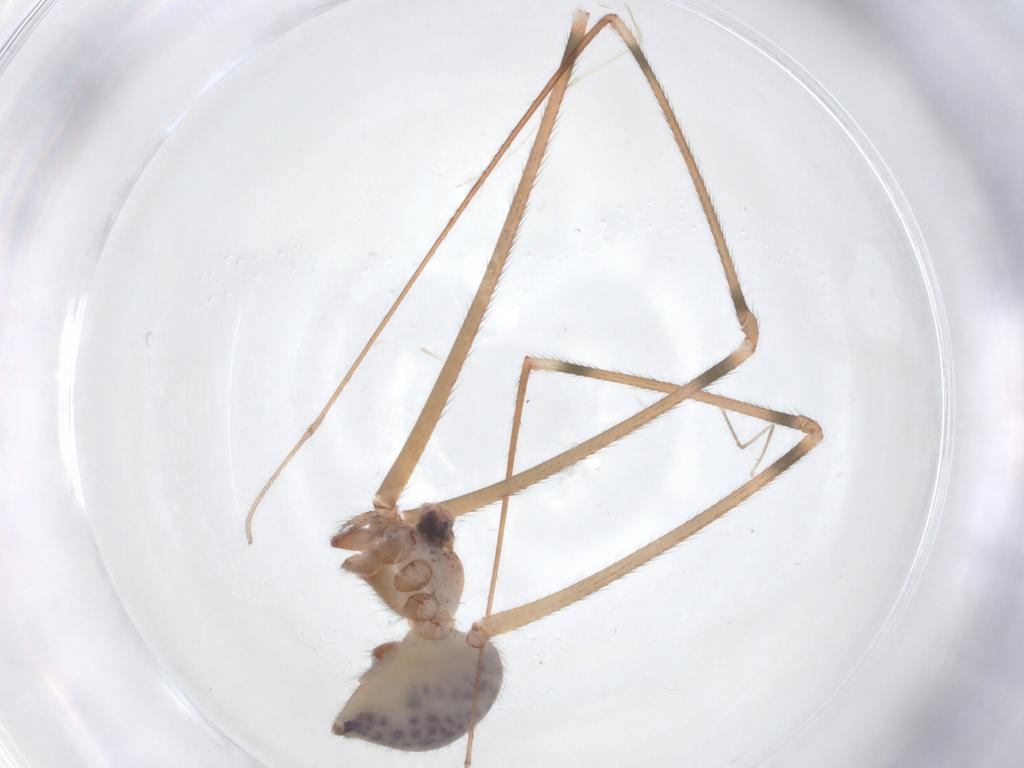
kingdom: Animalia
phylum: Arthropoda
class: Arachnida
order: Araneae
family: Pholcidae
